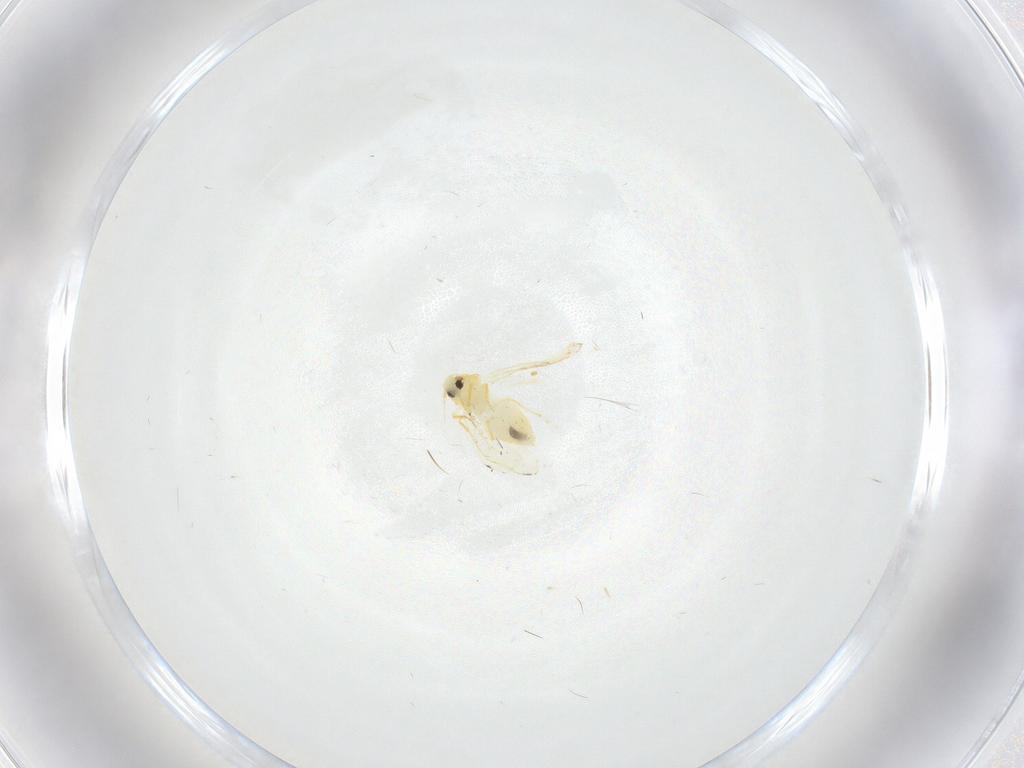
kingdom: Animalia
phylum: Arthropoda
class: Insecta
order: Hemiptera
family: Aleyrodidae
